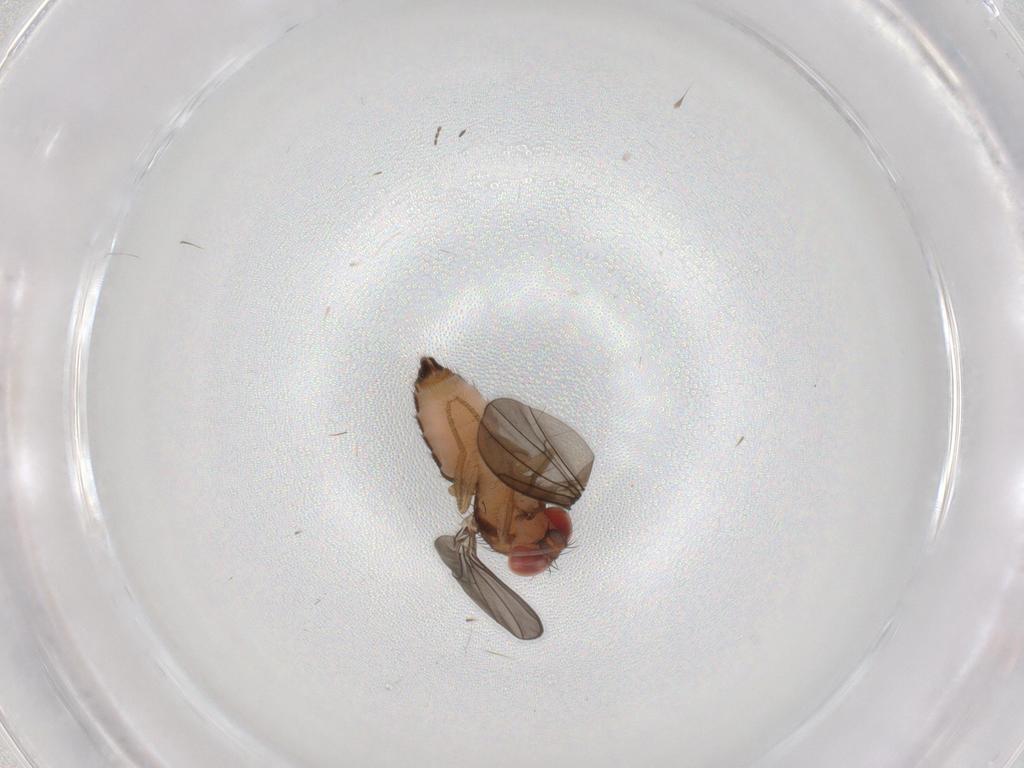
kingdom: Animalia
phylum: Arthropoda
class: Insecta
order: Diptera
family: Drosophilidae
